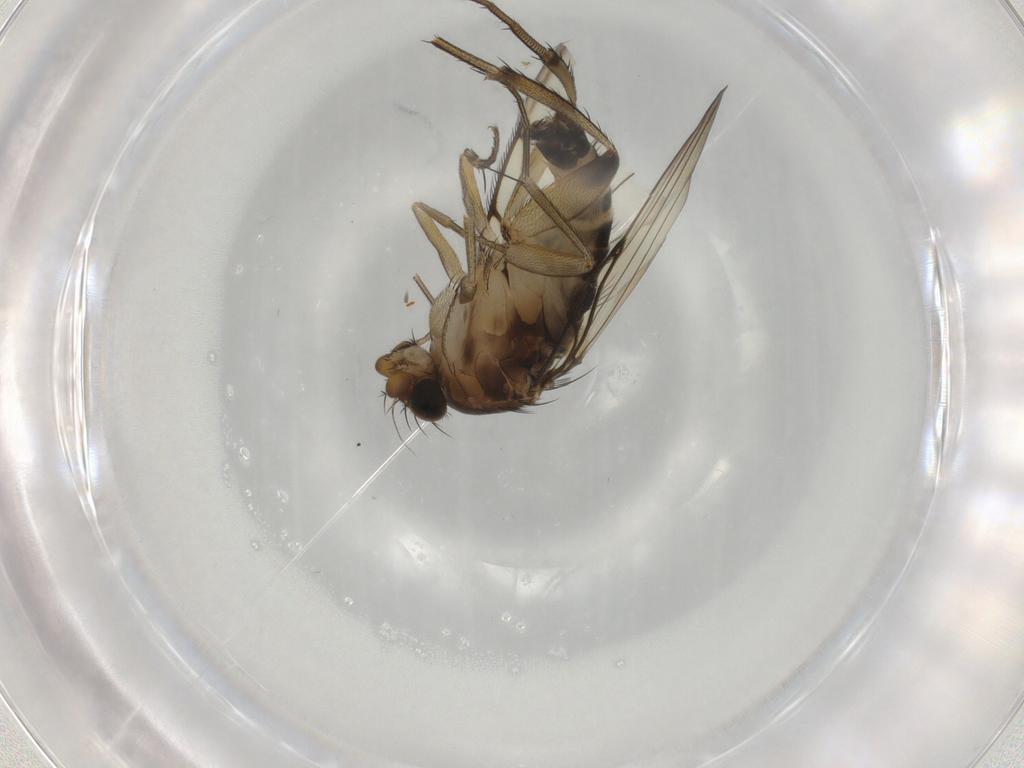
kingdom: Animalia
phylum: Arthropoda
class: Insecta
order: Diptera
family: Phoridae
